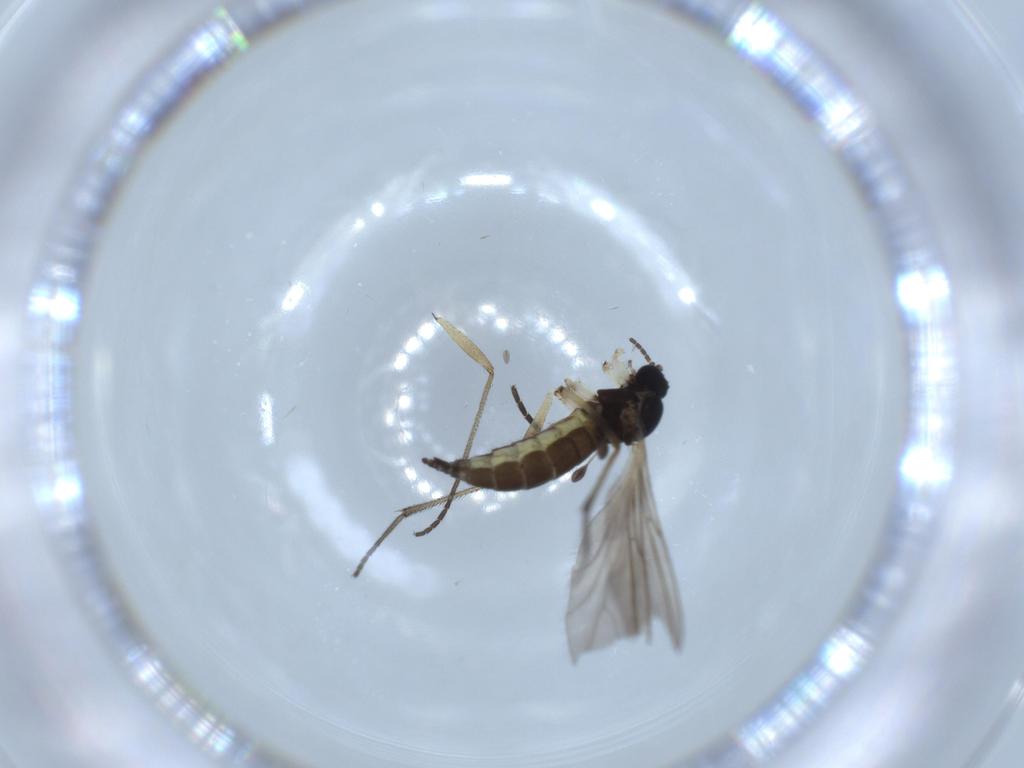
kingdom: Animalia
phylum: Arthropoda
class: Insecta
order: Diptera
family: Sciaridae
